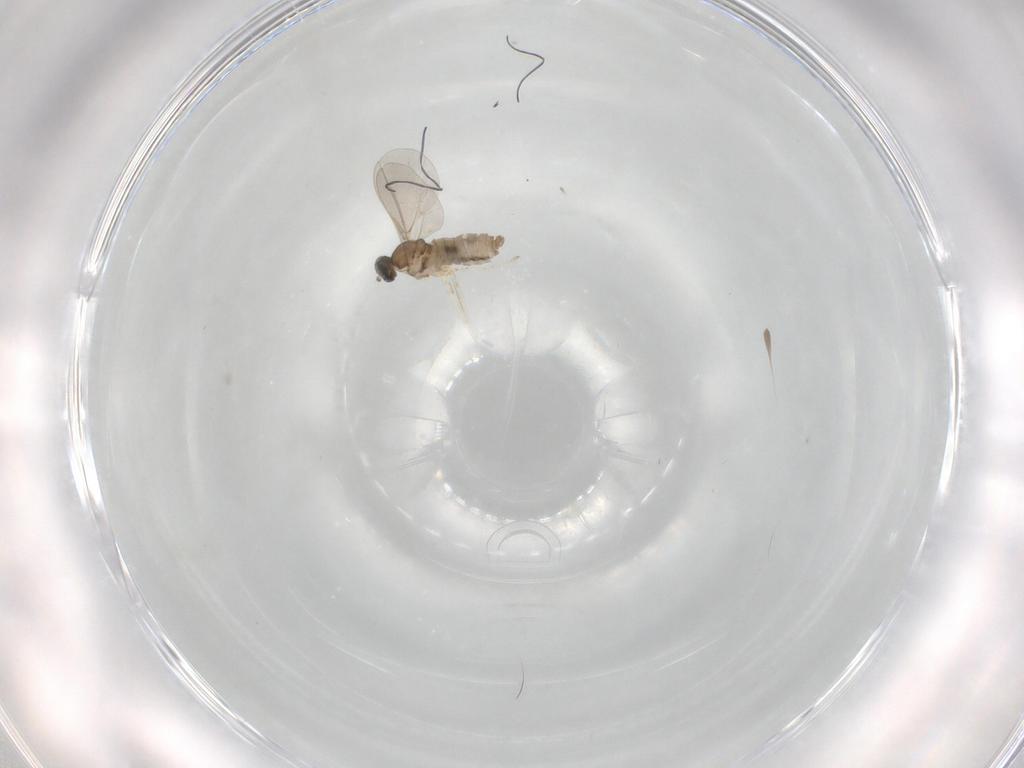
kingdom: Animalia
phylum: Arthropoda
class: Insecta
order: Diptera
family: Cecidomyiidae
